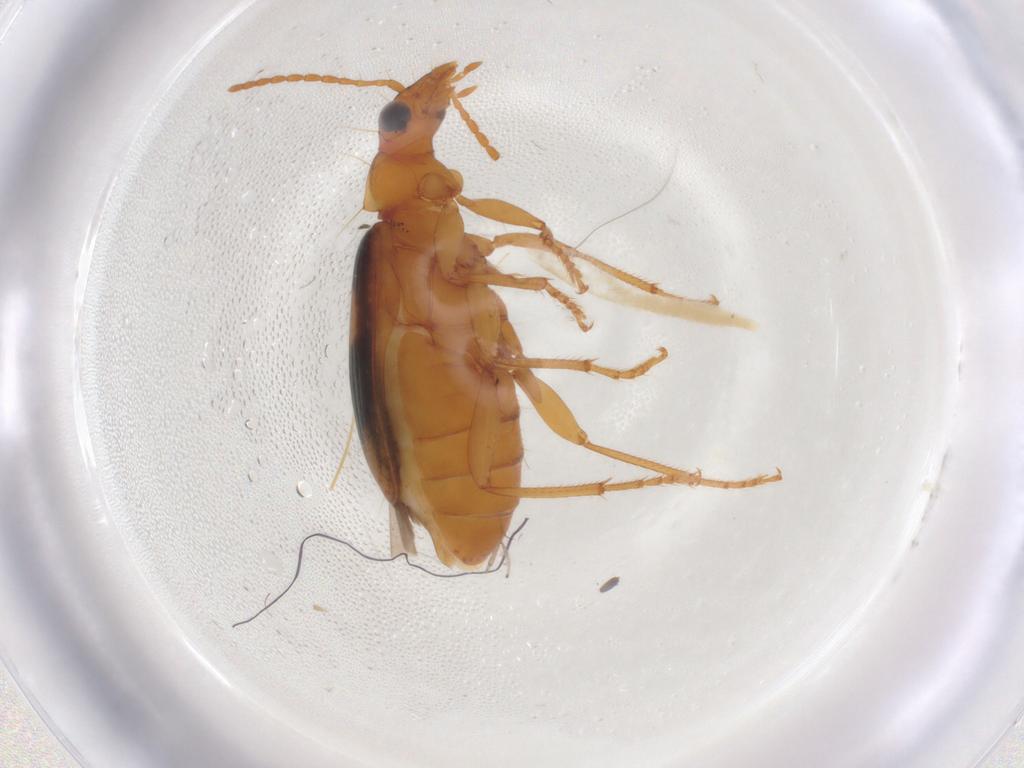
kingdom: Animalia
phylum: Arthropoda
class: Insecta
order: Coleoptera
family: Carabidae
